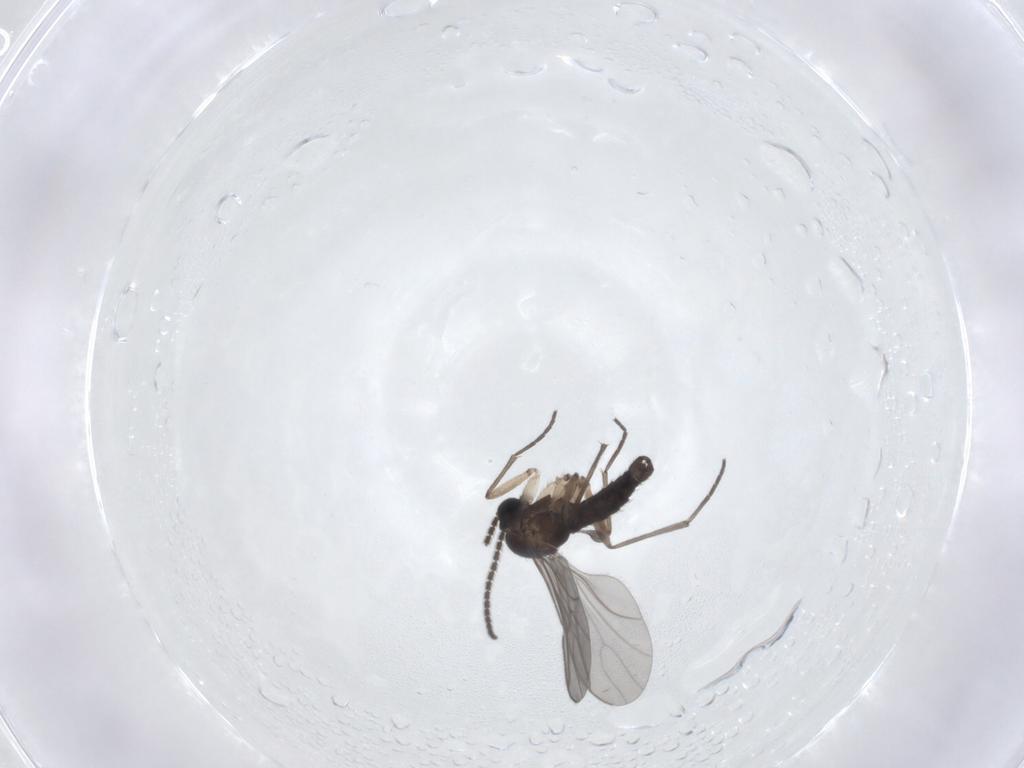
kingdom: Animalia
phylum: Arthropoda
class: Insecta
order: Diptera
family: Sciaridae
